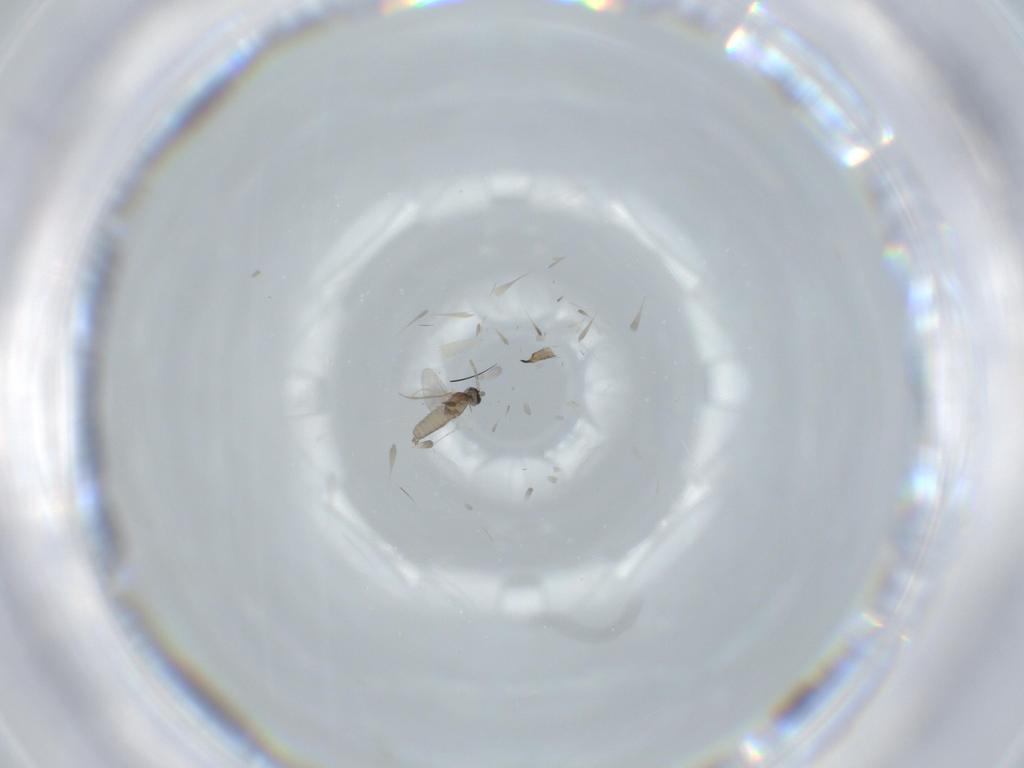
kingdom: Animalia
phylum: Arthropoda
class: Insecta
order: Diptera
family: Sciaridae
